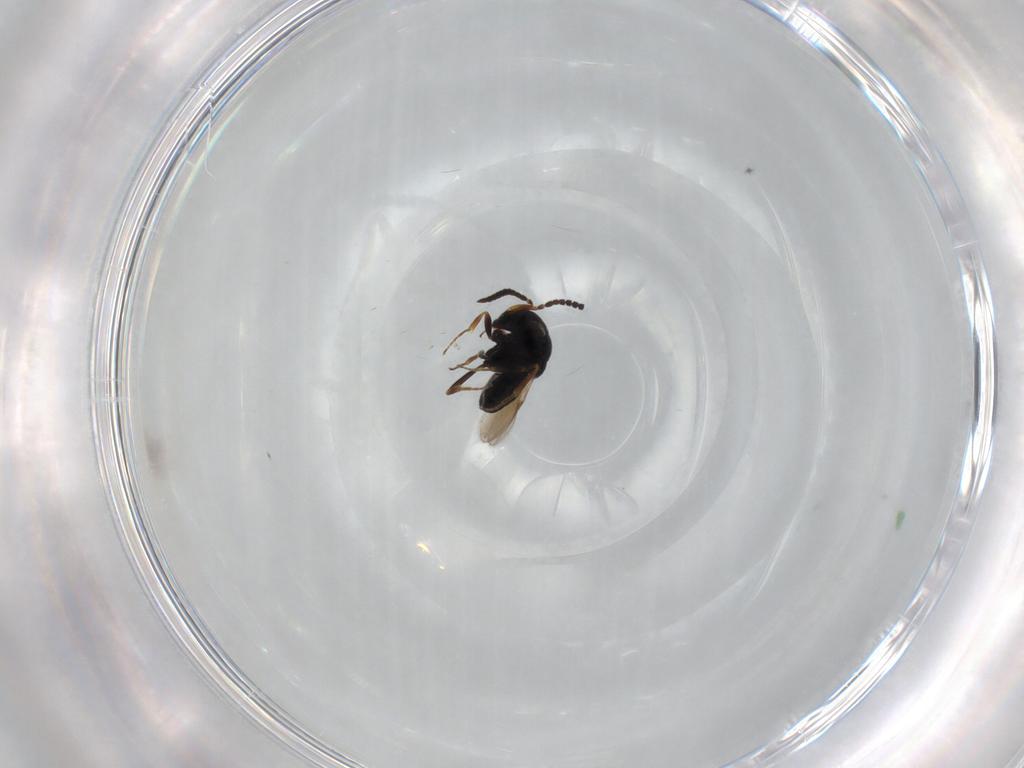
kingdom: Animalia
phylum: Arthropoda
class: Insecta
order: Hymenoptera
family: Scelionidae
